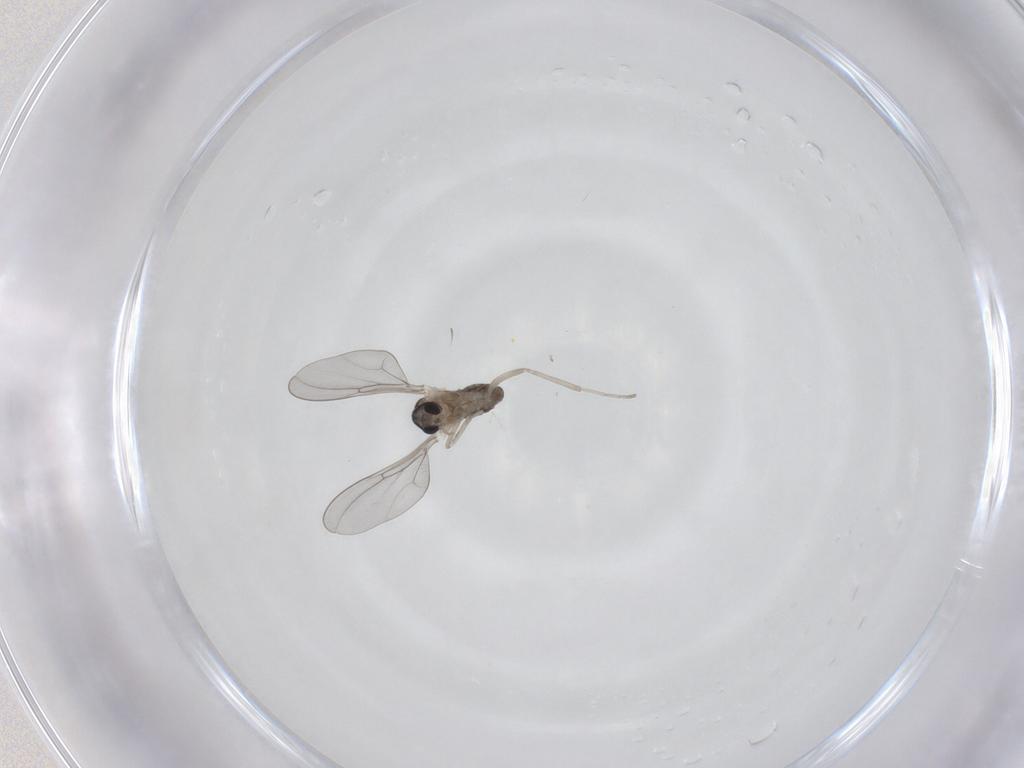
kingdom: Animalia
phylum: Arthropoda
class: Insecta
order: Diptera
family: Cecidomyiidae
